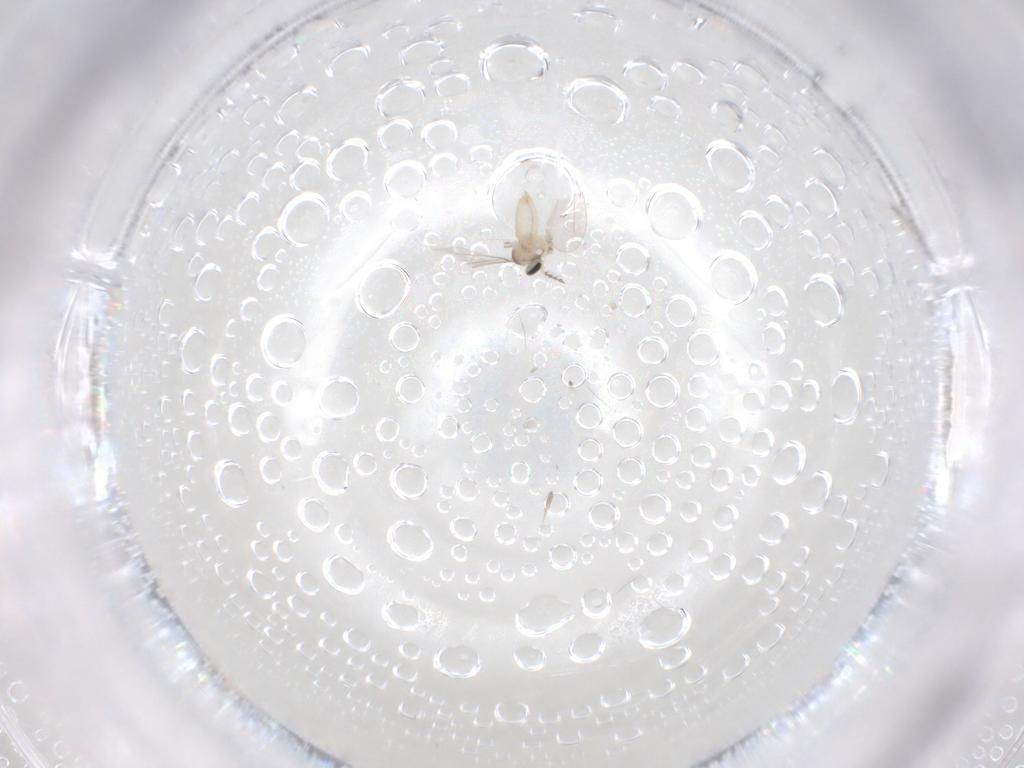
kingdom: Animalia
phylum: Arthropoda
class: Insecta
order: Diptera
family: Cecidomyiidae
